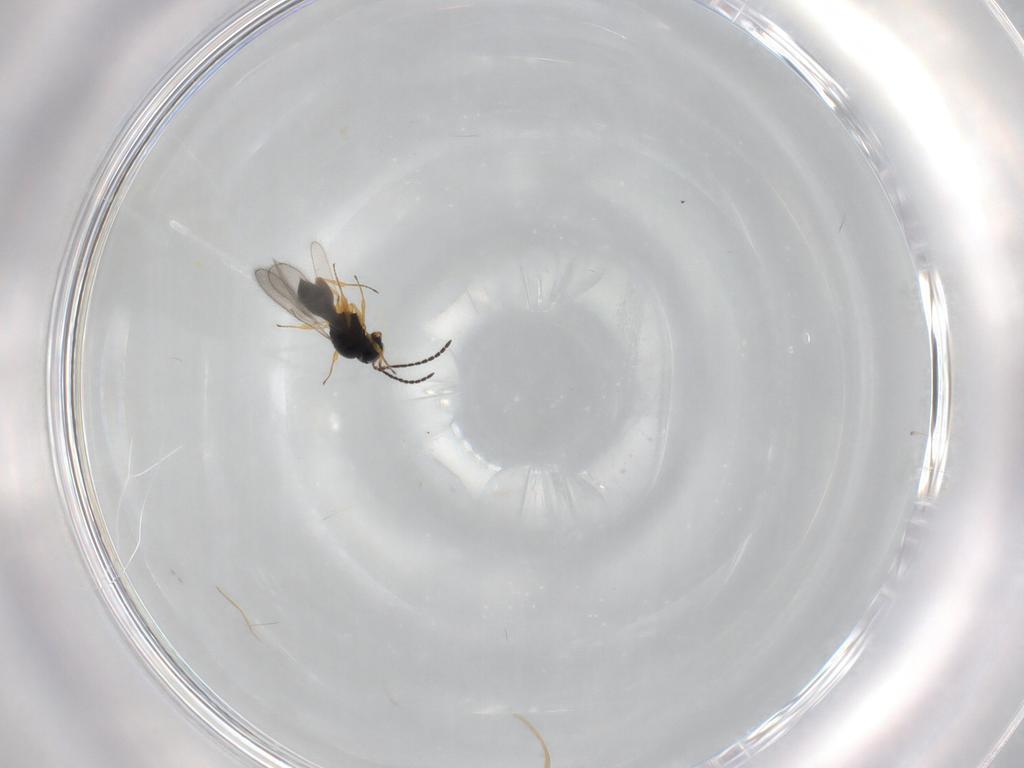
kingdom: Animalia
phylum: Arthropoda
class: Insecta
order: Hymenoptera
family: Scelionidae
